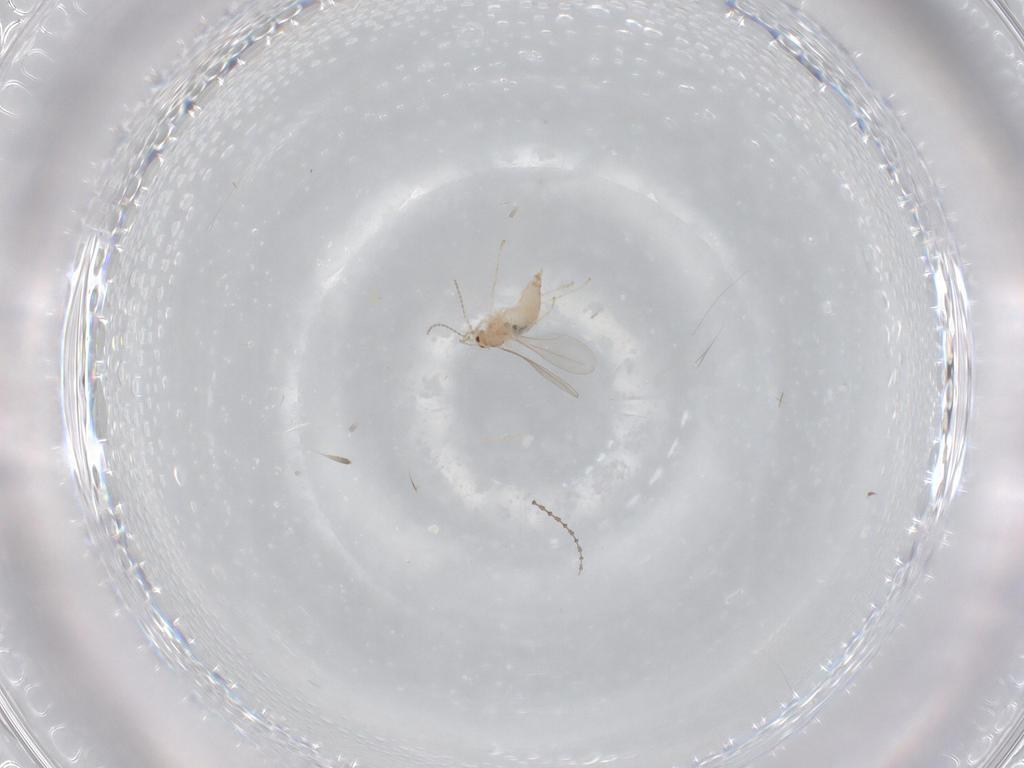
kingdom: Animalia
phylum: Arthropoda
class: Insecta
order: Diptera
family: Cecidomyiidae
